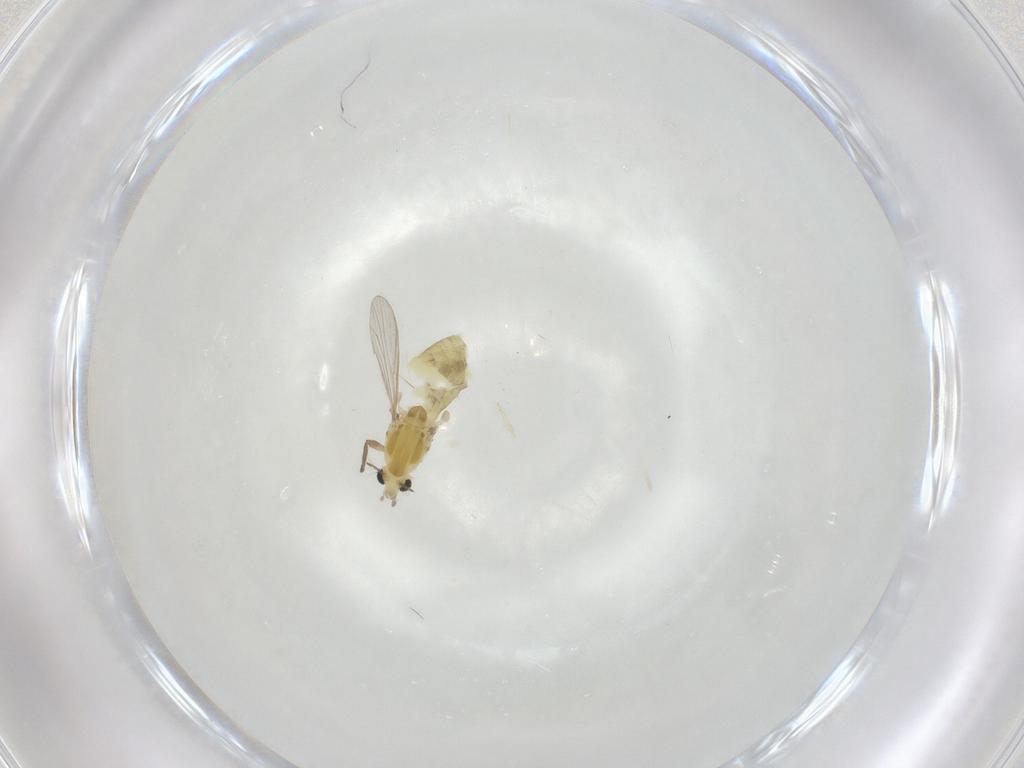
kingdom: Animalia
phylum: Arthropoda
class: Insecta
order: Diptera
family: Chironomidae
